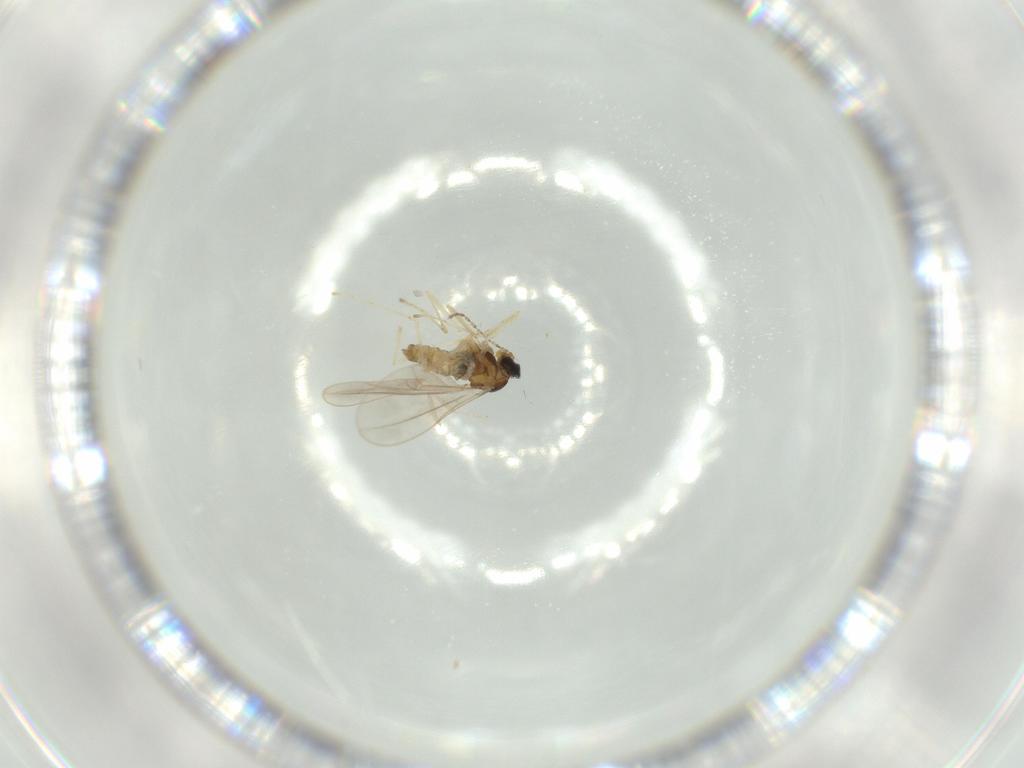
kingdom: Animalia
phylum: Arthropoda
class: Insecta
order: Diptera
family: Cecidomyiidae
